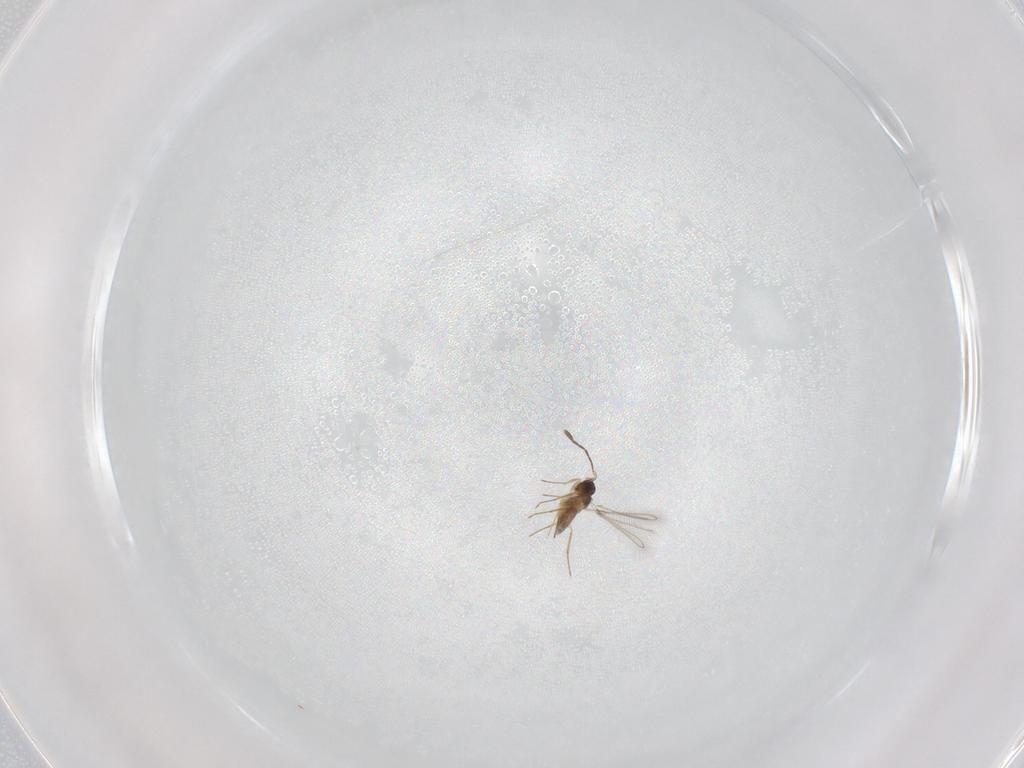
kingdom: Animalia
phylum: Arthropoda
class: Insecta
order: Hymenoptera
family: Mymaridae
